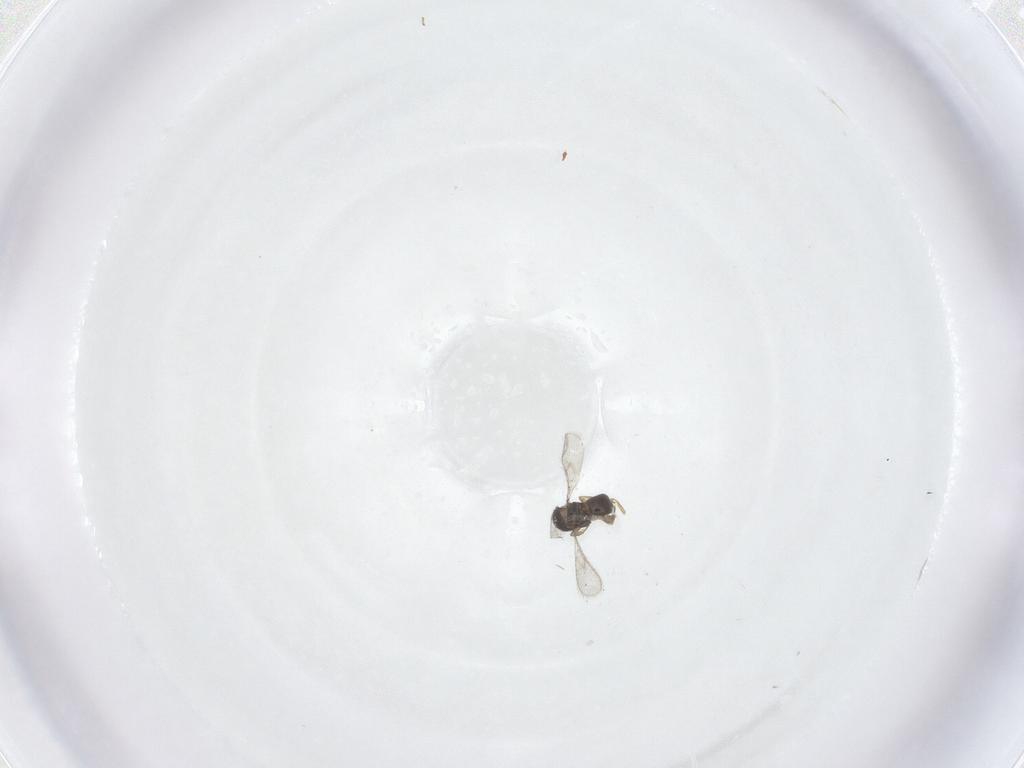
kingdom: Animalia
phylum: Arthropoda
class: Insecta
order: Hymenoptera
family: Scelionidae
